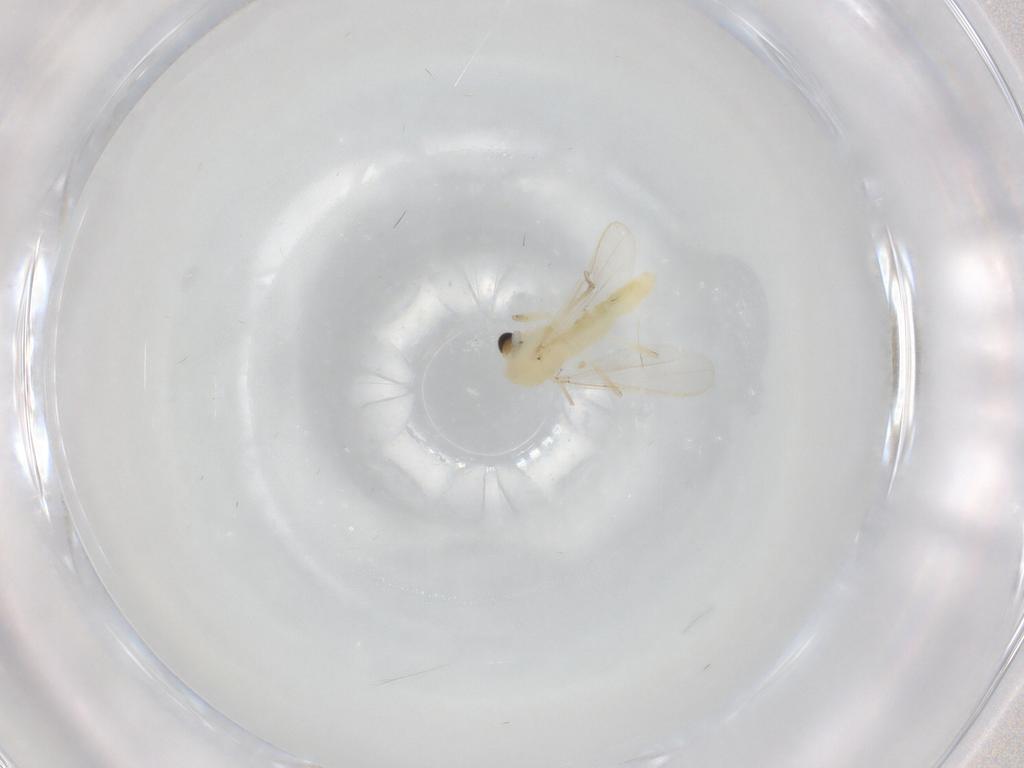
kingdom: Animalia
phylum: Arthropoda
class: Insecta
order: Diptera
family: Chironomidae
